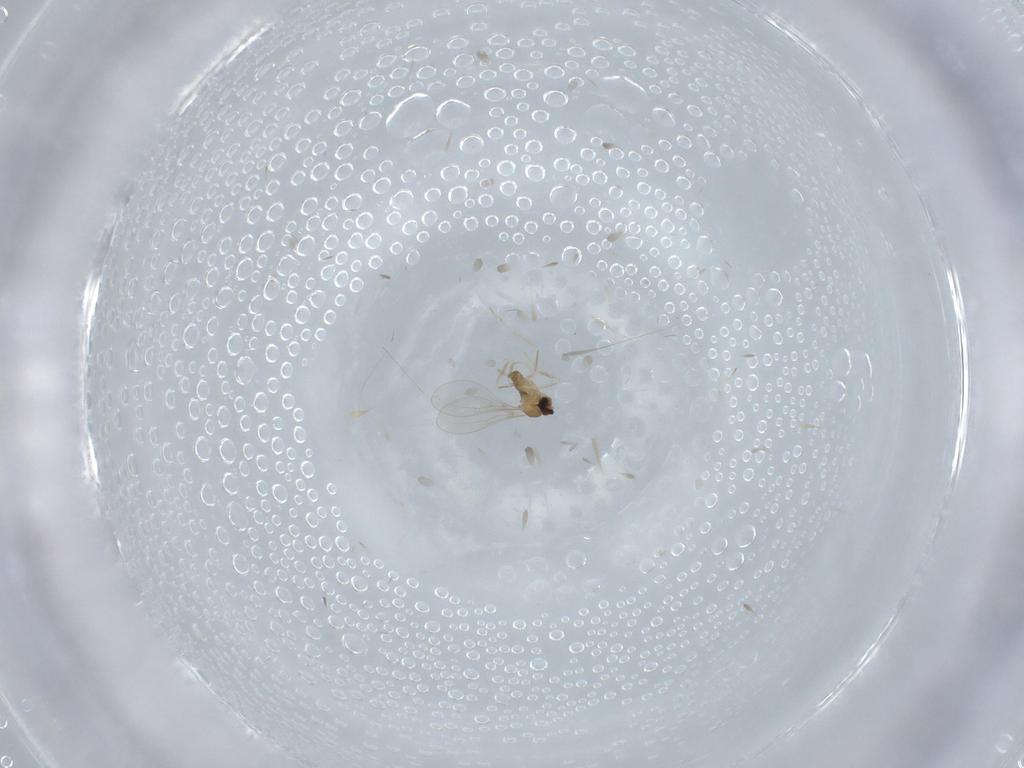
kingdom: Animalia
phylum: Arthropoda
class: Insecta
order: Diptera
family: Cecidomyiidae
